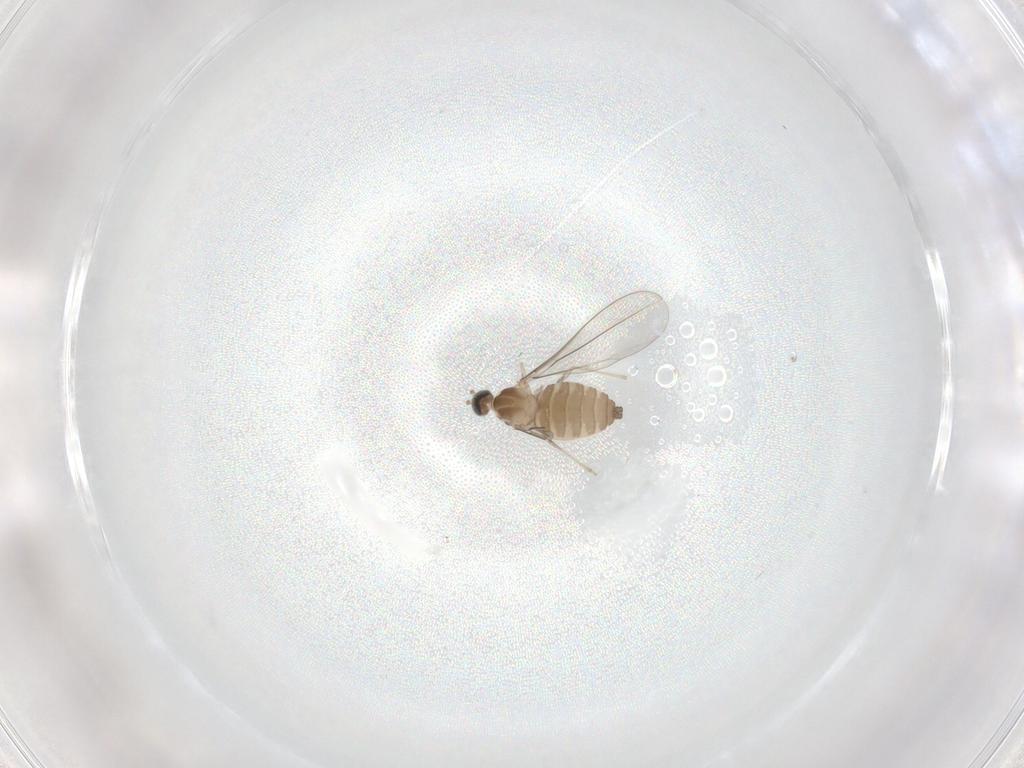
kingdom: Animalia
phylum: Arthropoda
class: Insecta
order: Diptera
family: Cecidomyiidae
